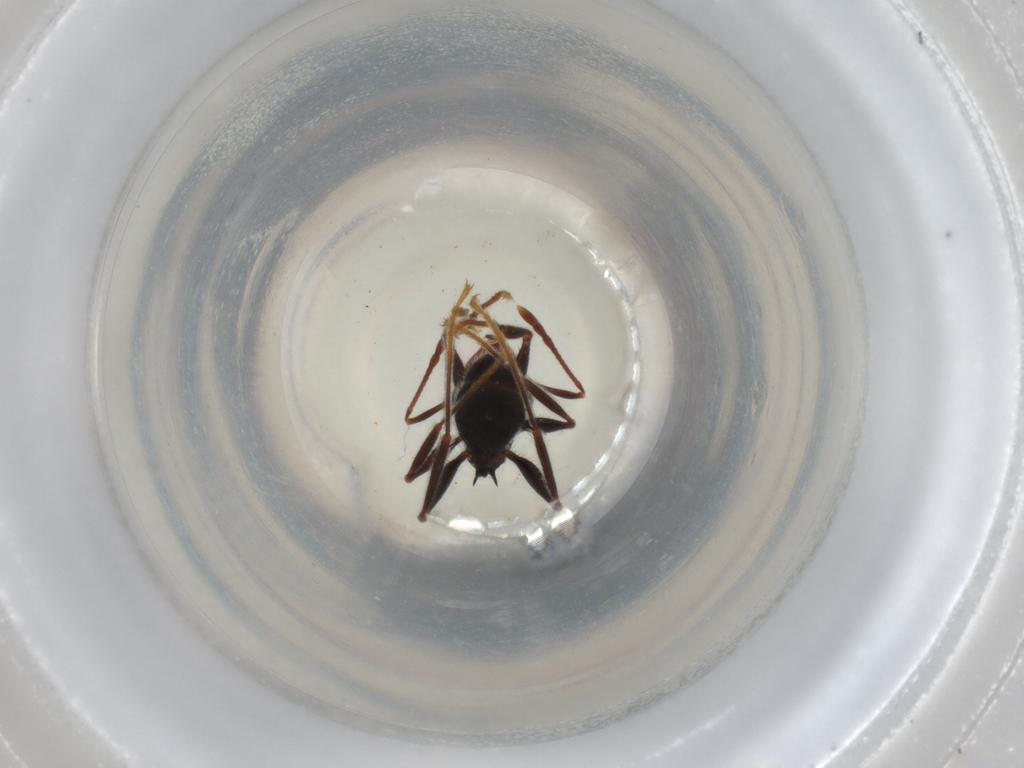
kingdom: Animalia
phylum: Arthropoda
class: Insecta
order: Hymenoptera
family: Formicidae
